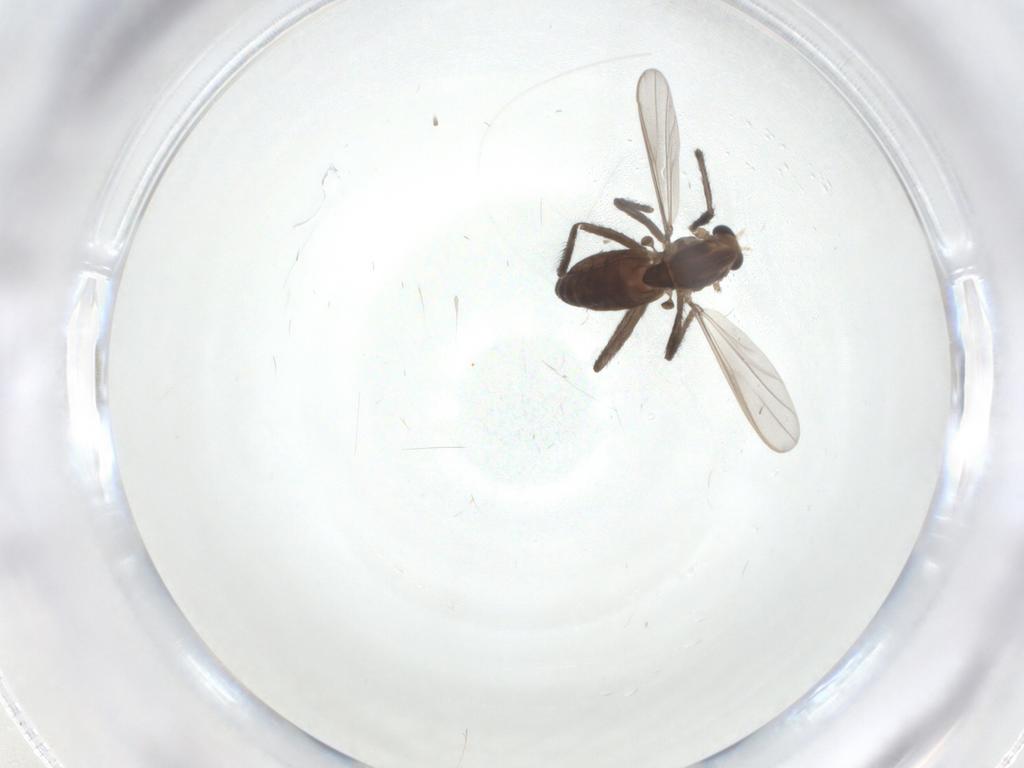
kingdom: Animalia
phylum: Arthropoda
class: Insecta
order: Diptera
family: Chironomidae
